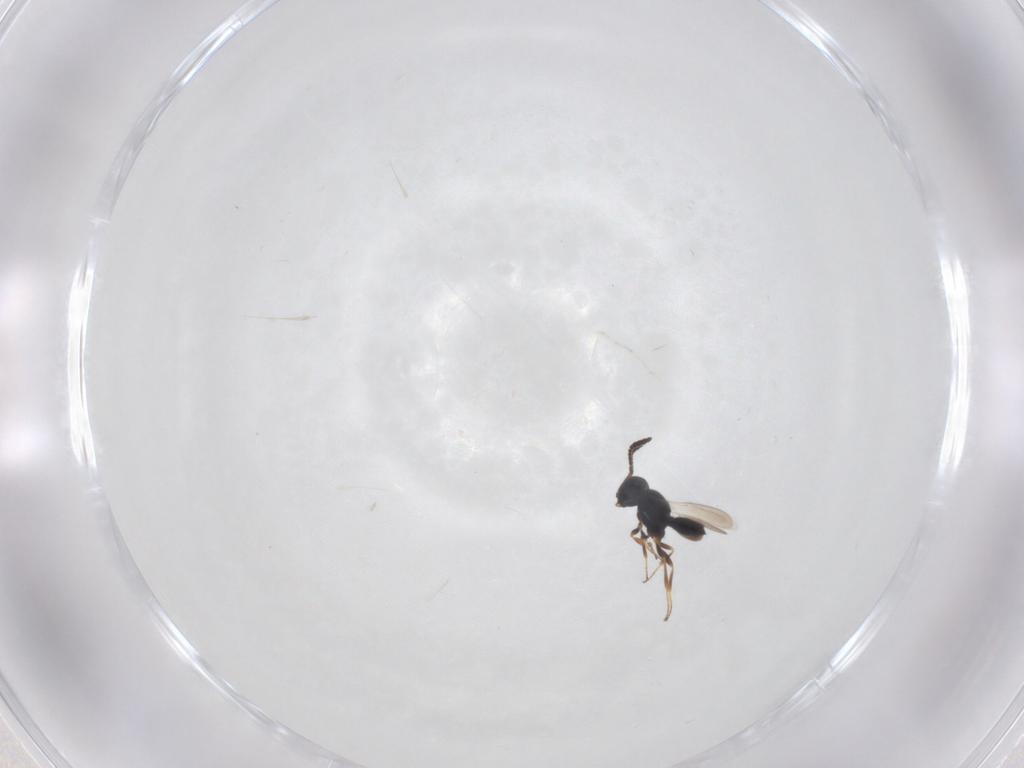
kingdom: Animalia
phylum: Arthropoda
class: Insecta
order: Hymenoptera
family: Scelionidae
